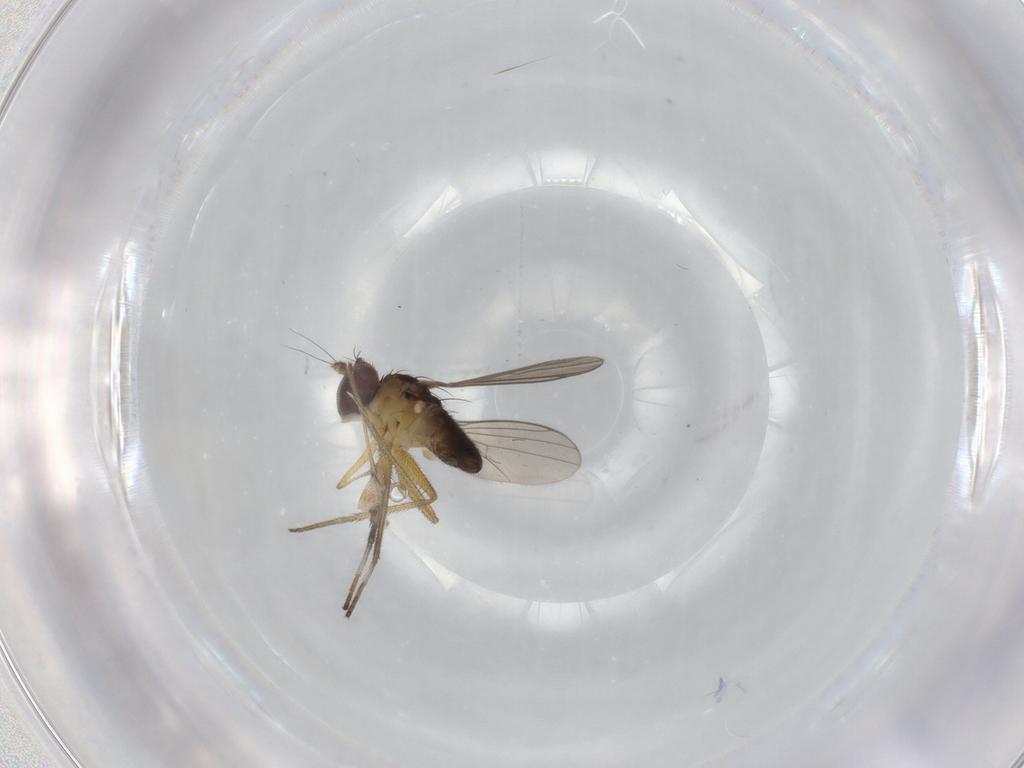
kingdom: Animalia
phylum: Arthropoda
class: Insecta
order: Diptera
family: Dolichopodidae
